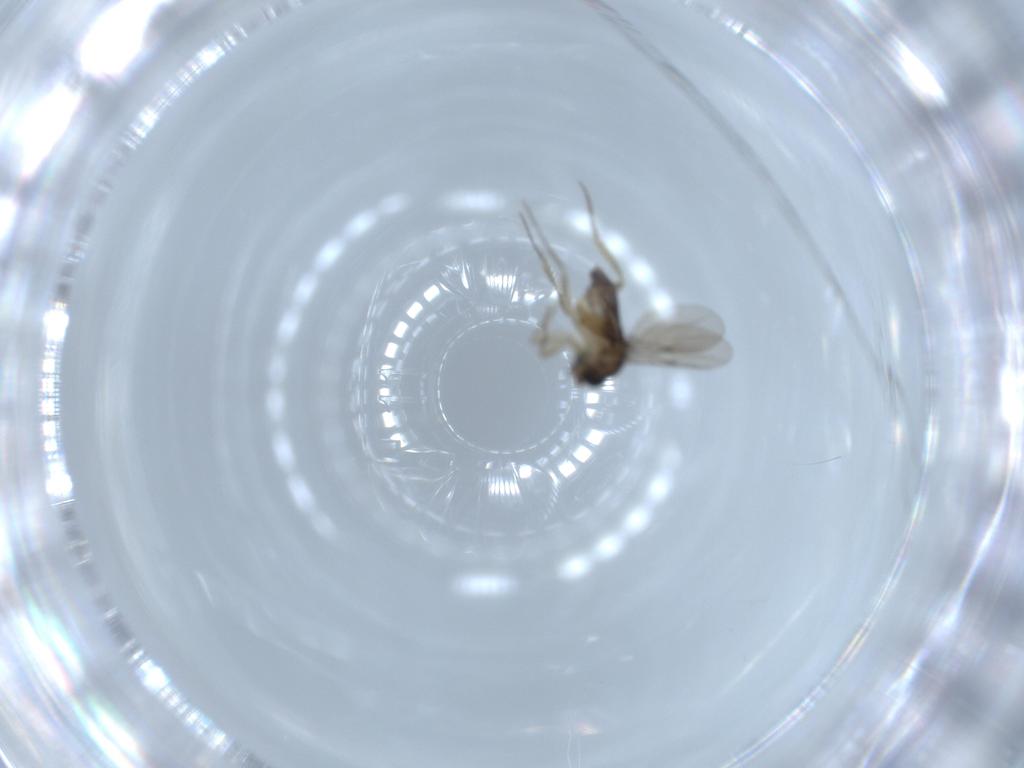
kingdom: Animalia
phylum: Arthropoda
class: Insecta
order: Diptera
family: Phoridae
